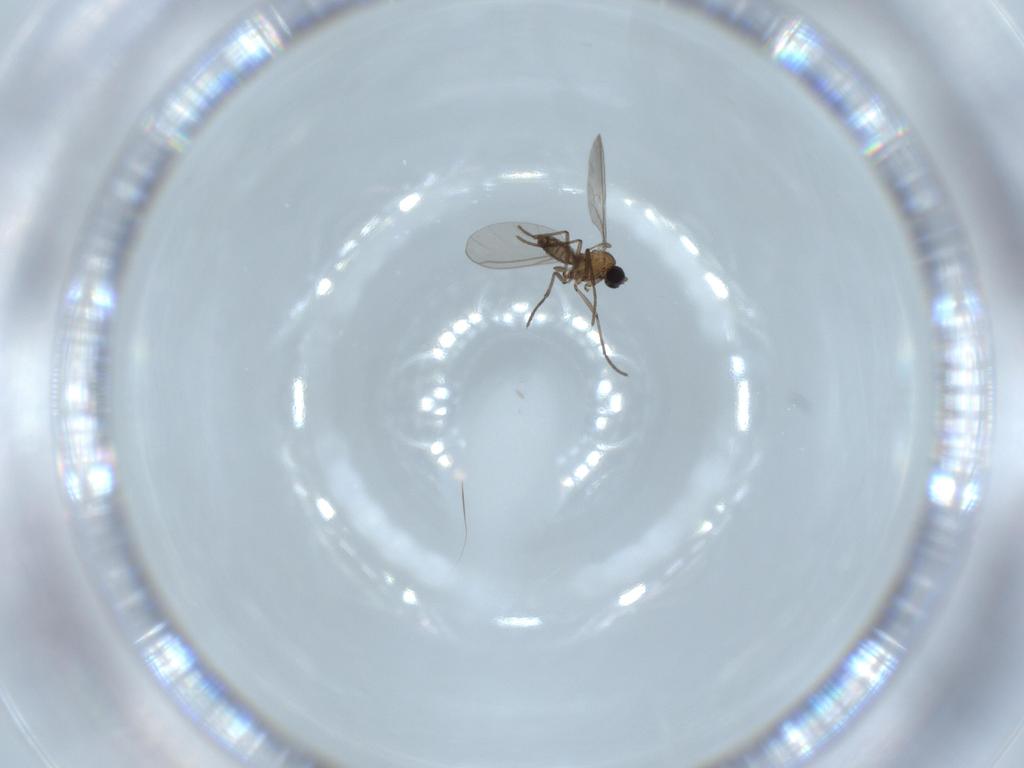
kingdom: Animalia
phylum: Arthropoda
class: Insecta
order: Diptera
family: Sciaridae
